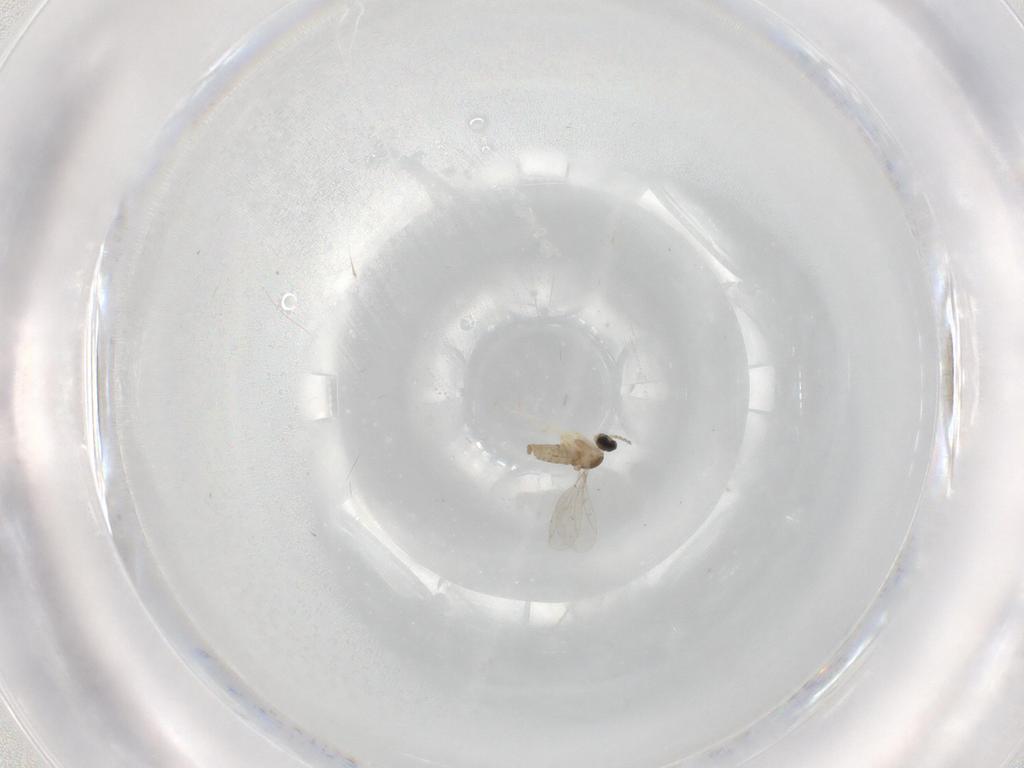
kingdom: Animalia
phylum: Arthropoda
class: Insecta
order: Diptera
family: Cecidomyiidae
